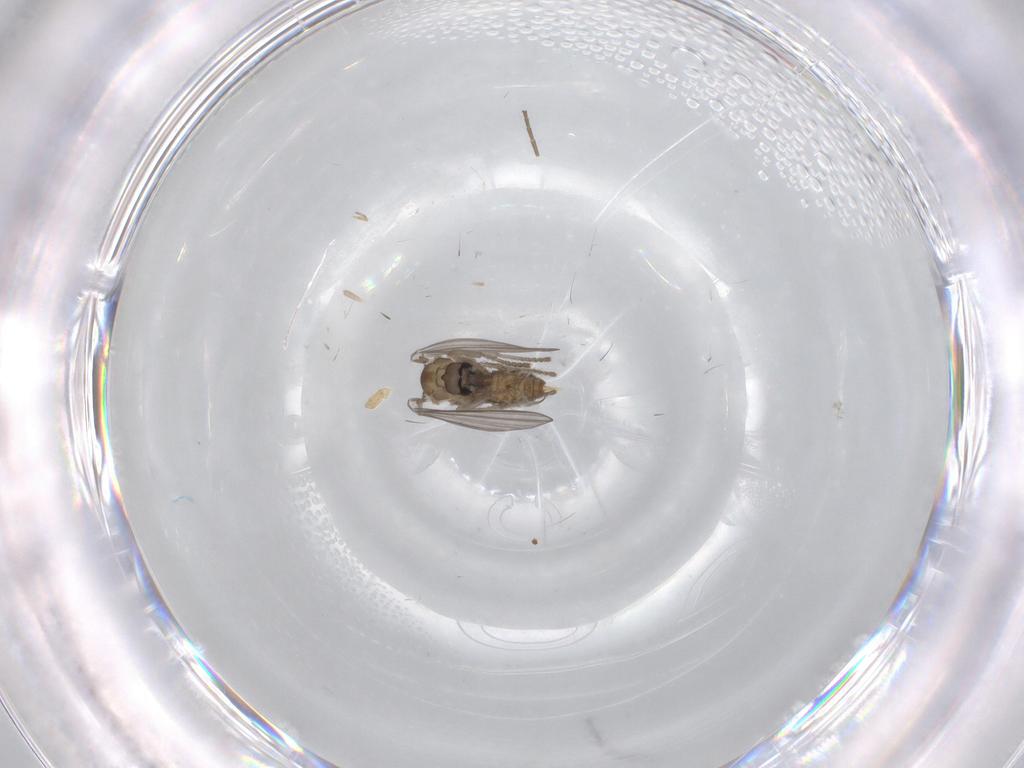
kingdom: Animalia
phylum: Arthropoda
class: Insecta
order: Diptera
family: Psychodidae
